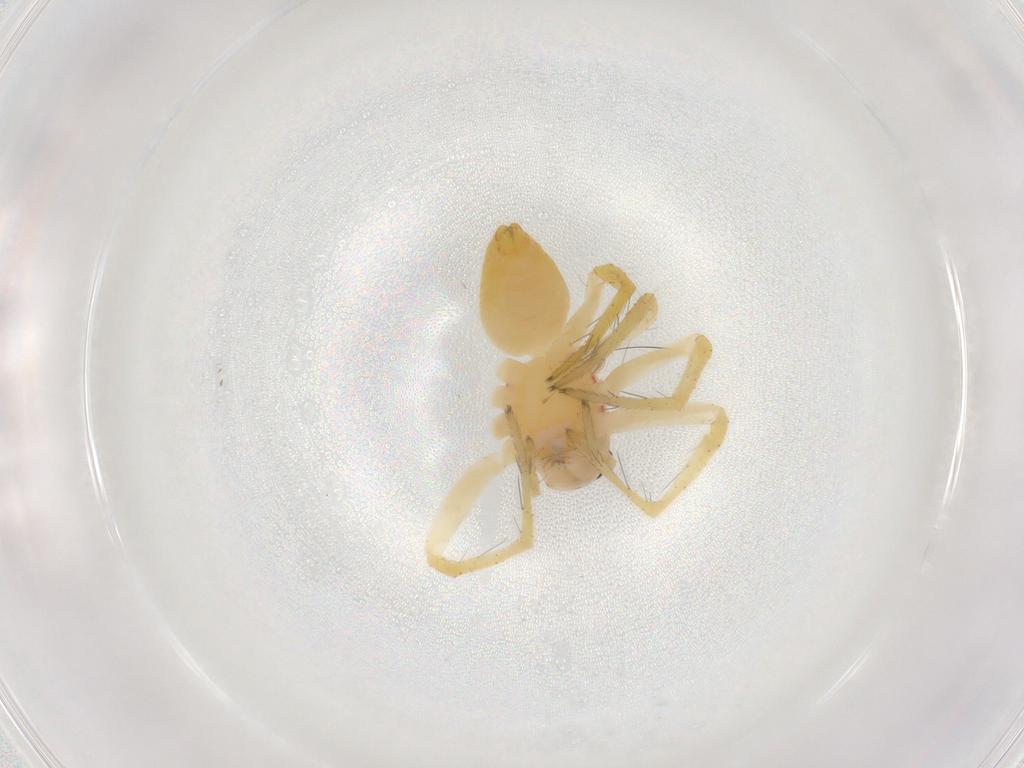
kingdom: Animalia
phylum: Arthropoda
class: Arachnida
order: Araneae
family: Oxyopidae
